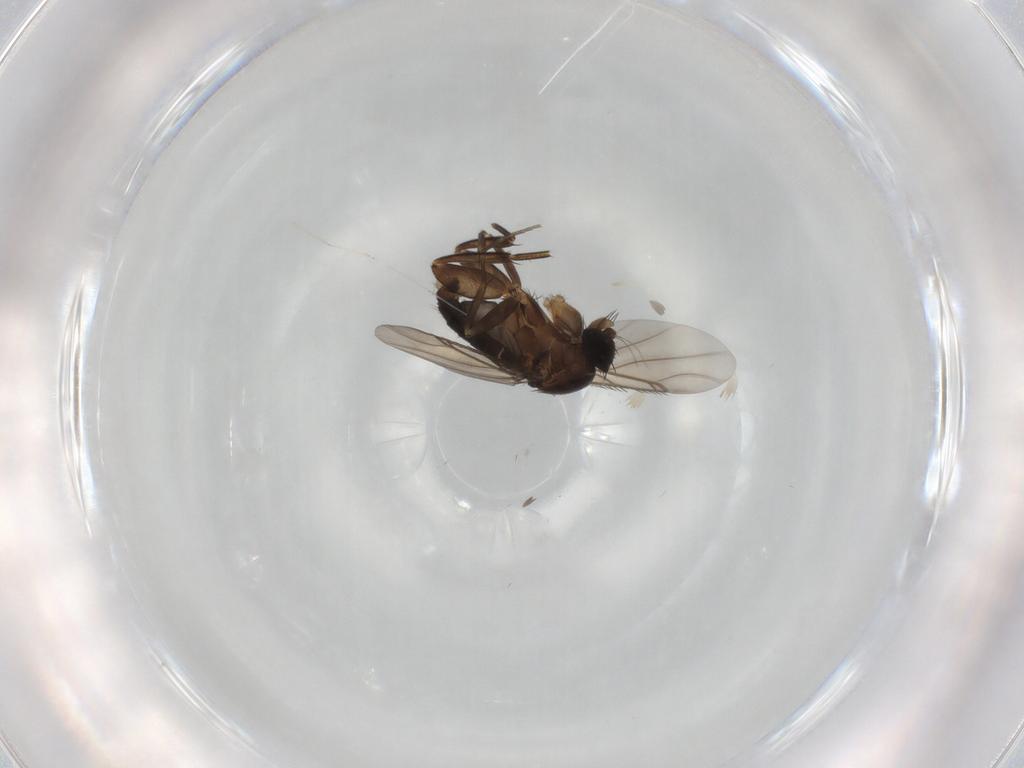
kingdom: Animalia
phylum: Arthropoda
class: Insecta
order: Diptera
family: Phoridae
